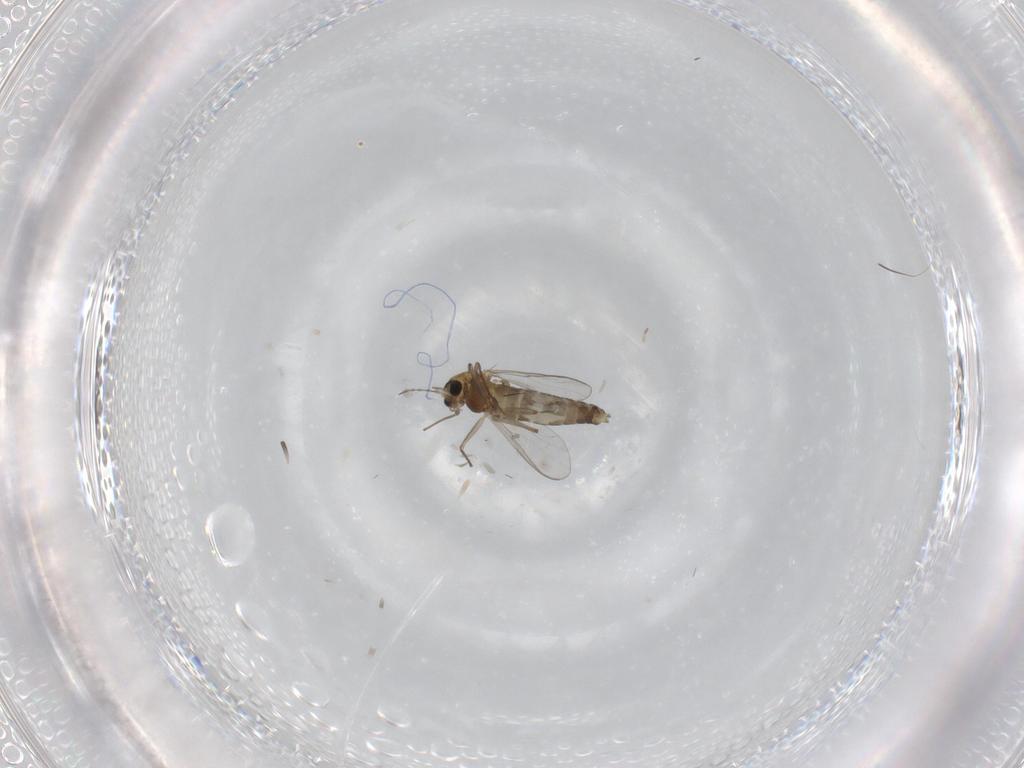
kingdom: Animalia
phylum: Arthropoda
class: Insecta
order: Diptera
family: Chironomidae
